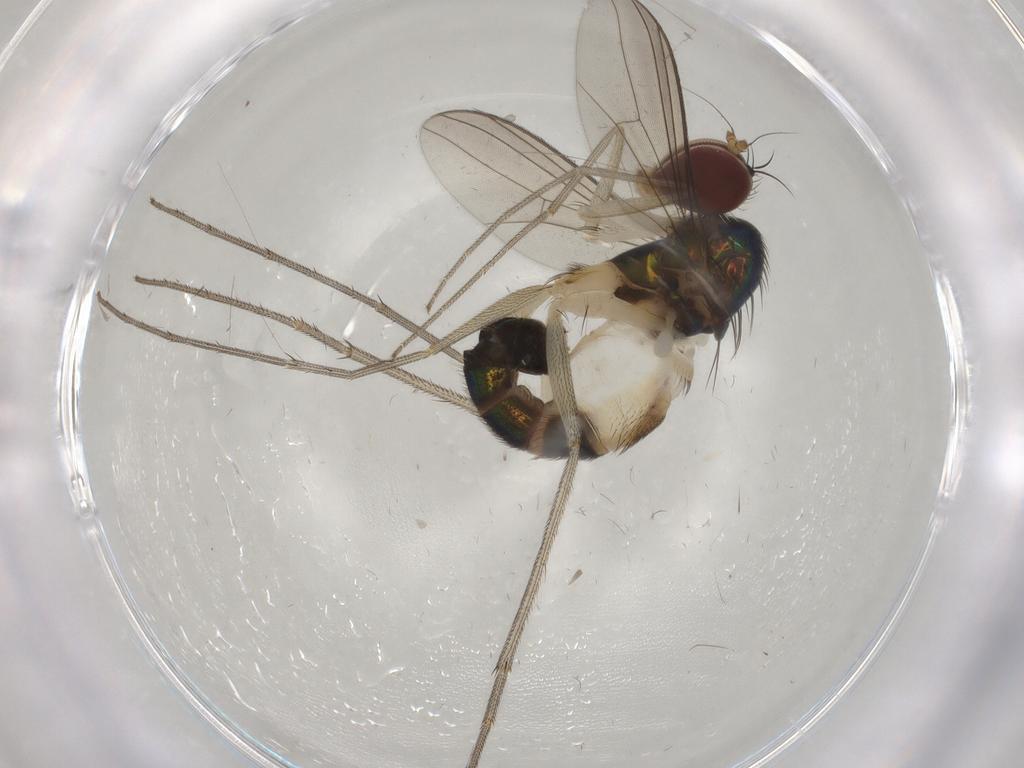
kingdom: Animalia
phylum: Arthropoda
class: Insecta
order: Diptera
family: Dolichopodidae
